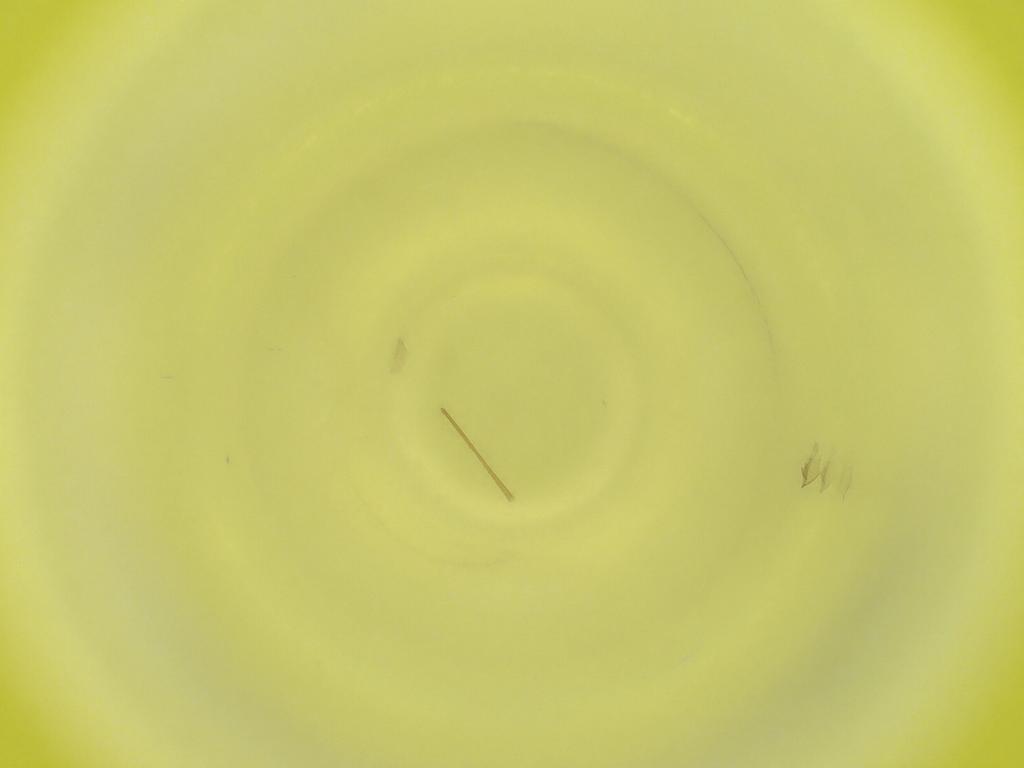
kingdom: Animalia
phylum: Arthropoda
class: Insecta
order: Diptera
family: Cecidomyiidae
